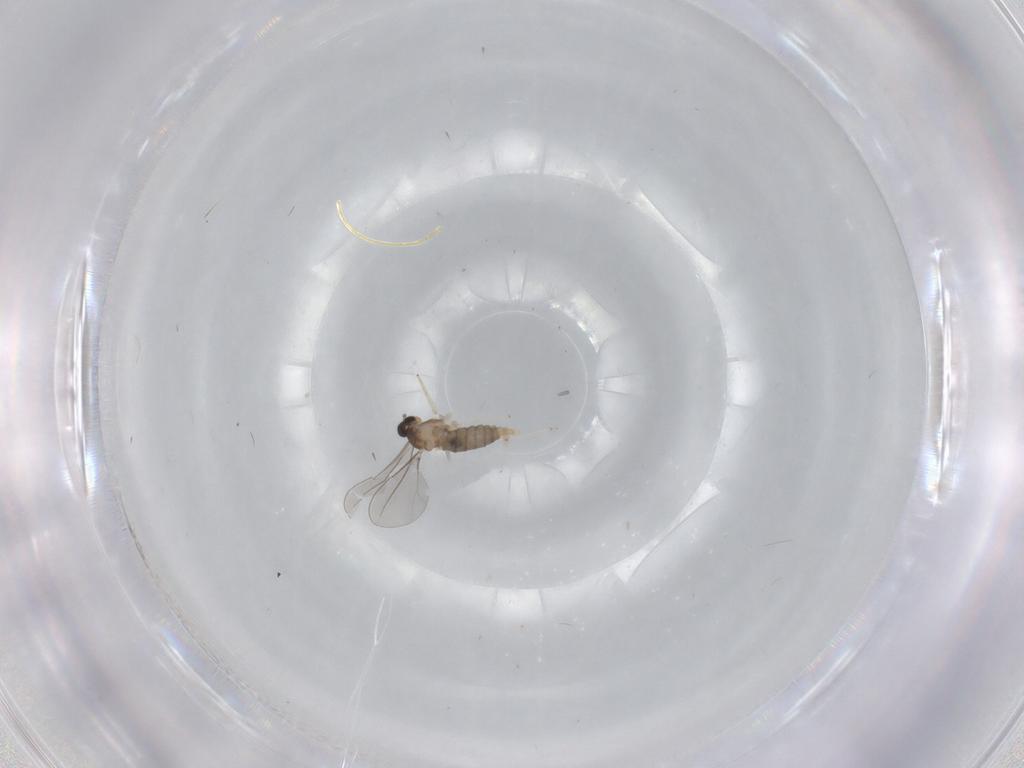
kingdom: Animalia
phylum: Arthropoda
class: Insecta
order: Diptera
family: Cecidomyiidae
